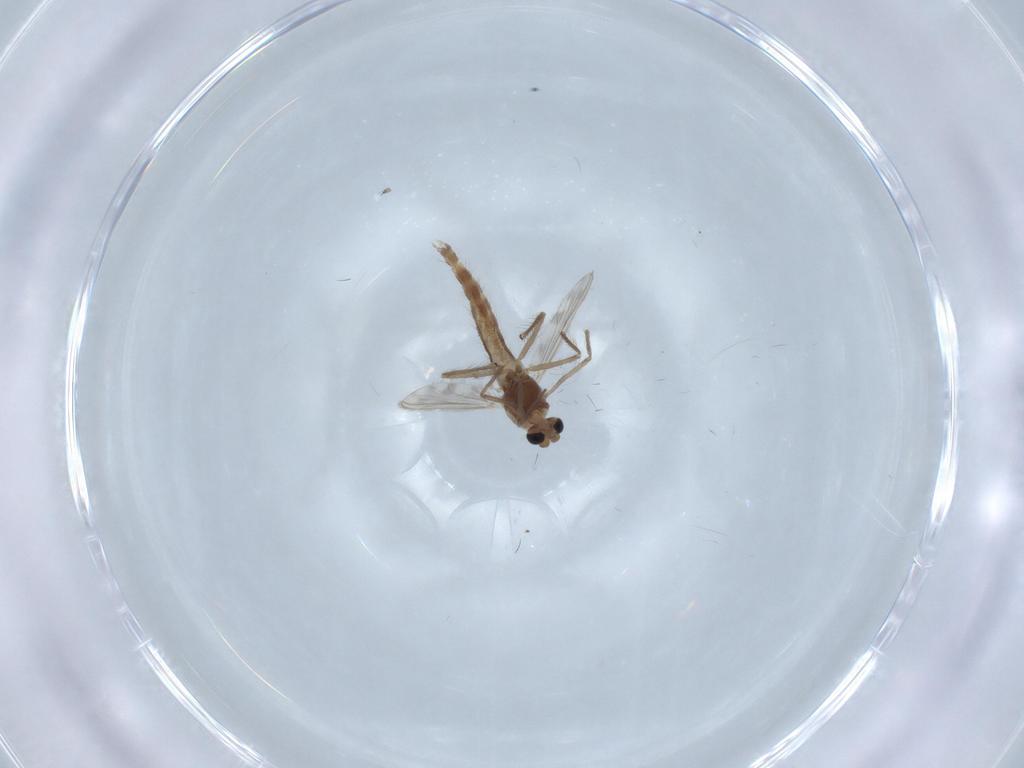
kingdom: Animalia
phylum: Arthropoda
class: Insecta
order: Diptera
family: Chironomidae
